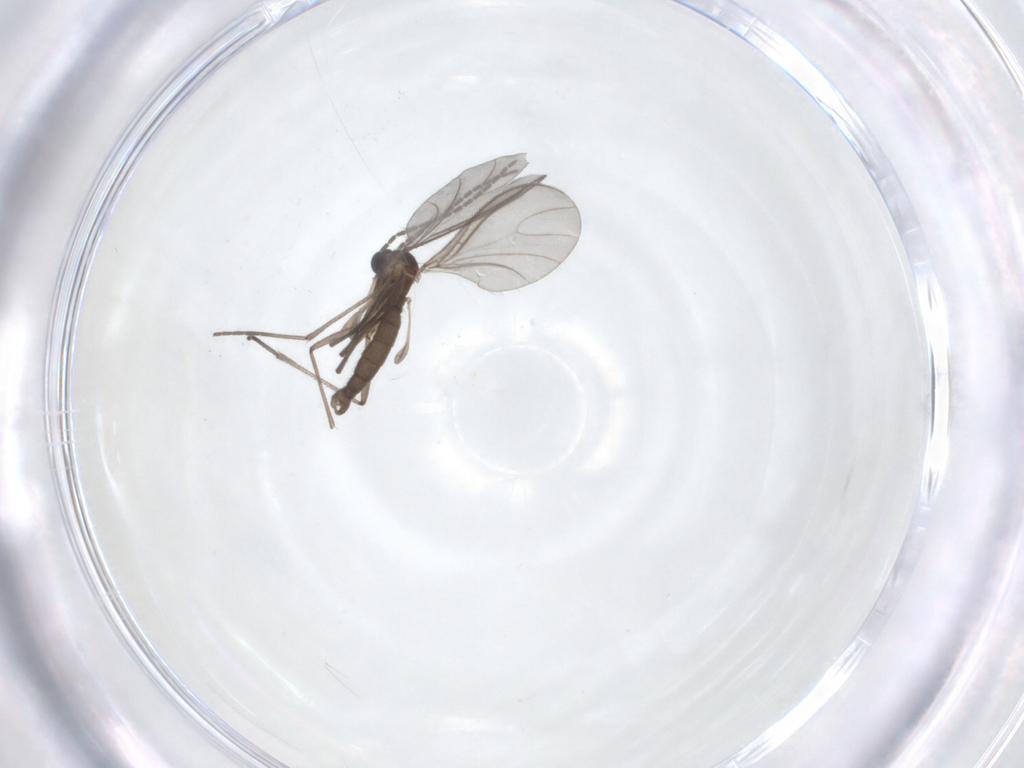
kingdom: Animalia
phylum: Arthropoda
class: Insecta
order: Diptera
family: Sciaridae
